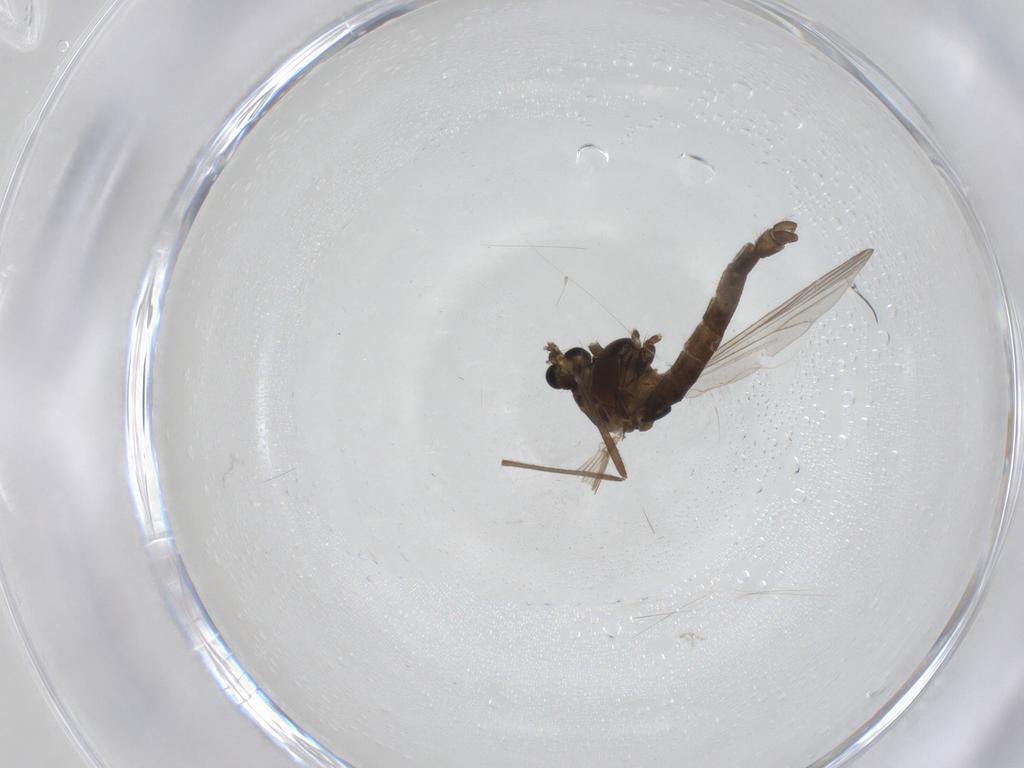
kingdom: Animalia
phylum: Arthropoda
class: Insecta
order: Diptera
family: Chironomidae
